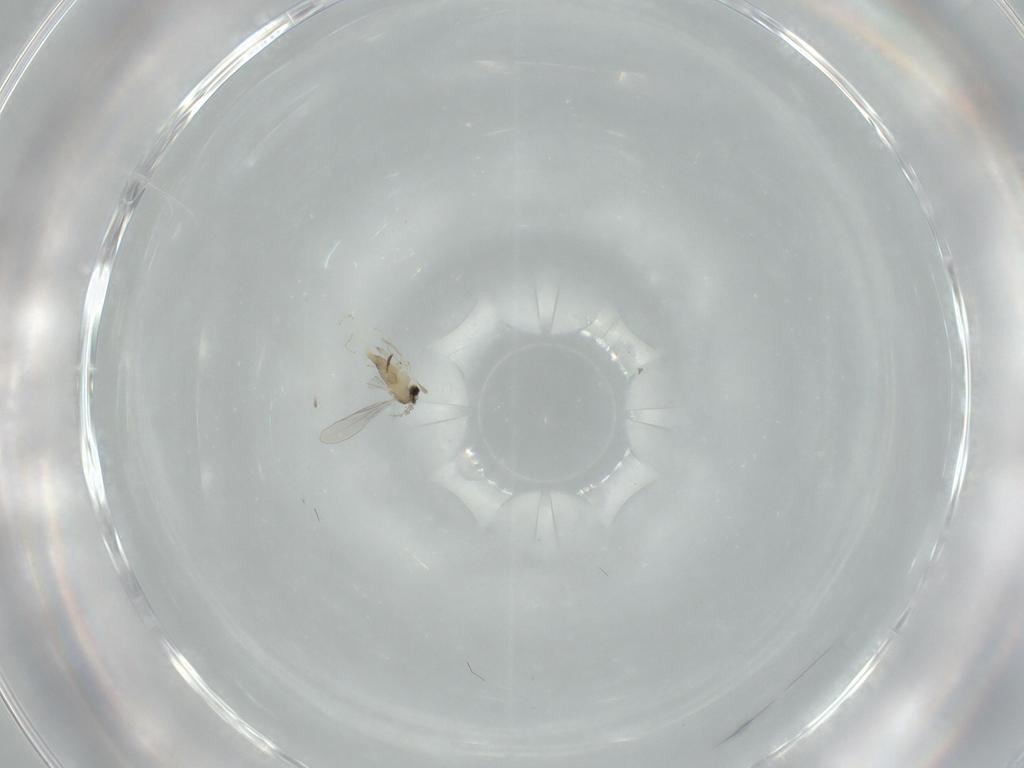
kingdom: Animalia
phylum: Arthropoda
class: Insecta
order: Diptera
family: Cecidomyiidae
